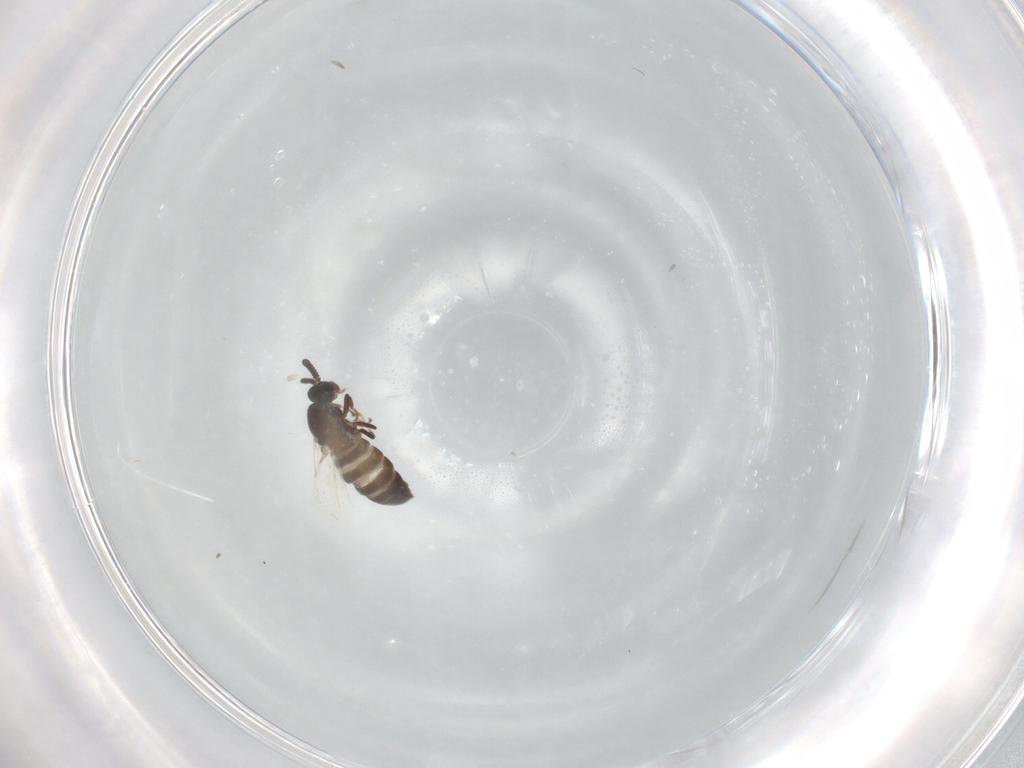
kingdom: Animalia
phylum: Arthropoda
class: Insecta
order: Diptera
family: Scatopsidae
